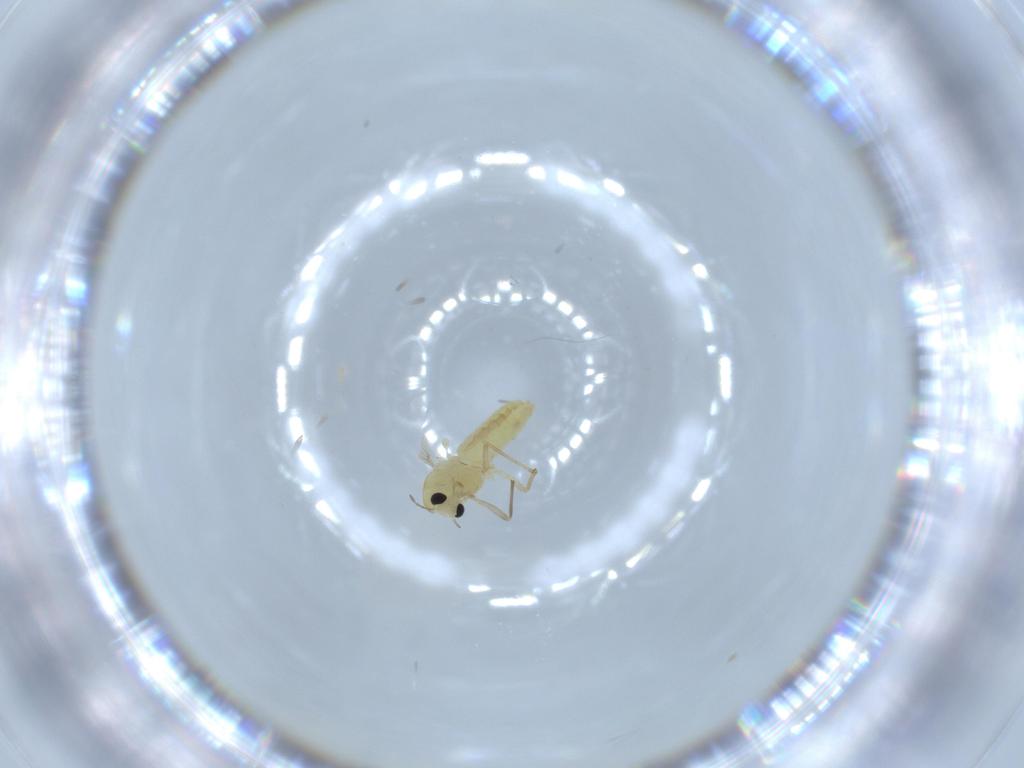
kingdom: Animalia
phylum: Arthropoda
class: Insecta
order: Diptera
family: Chironomidae
